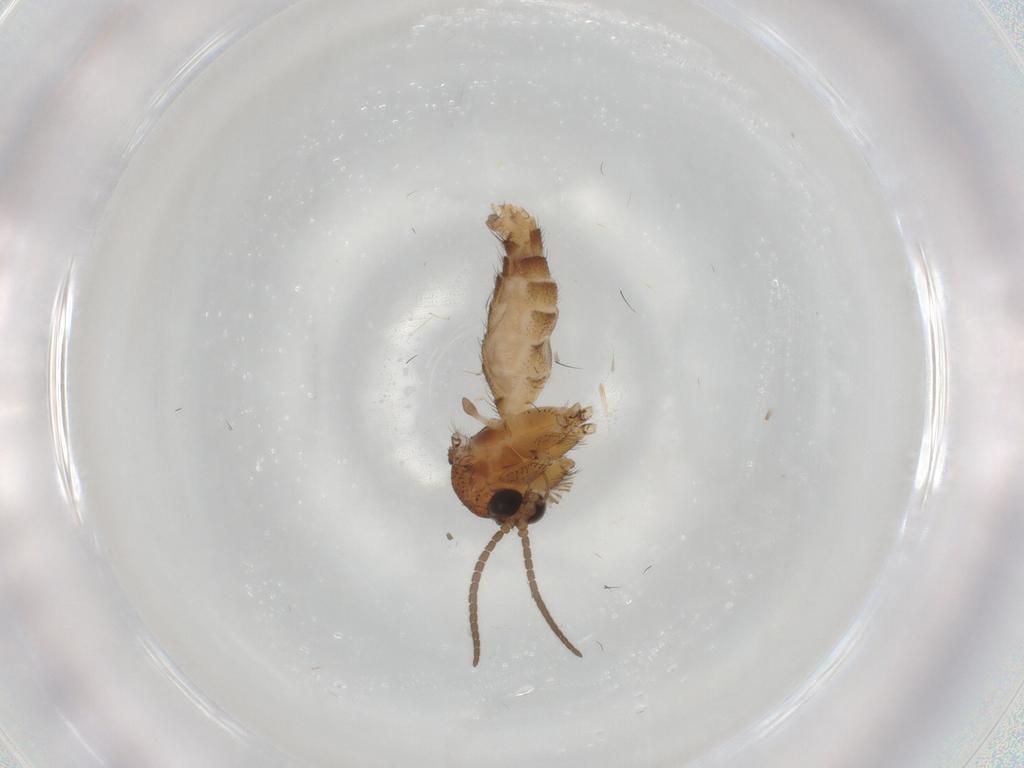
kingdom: Animalia
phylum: Arthropoda
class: Insecta
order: Diptera
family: Cecidomyiidae
